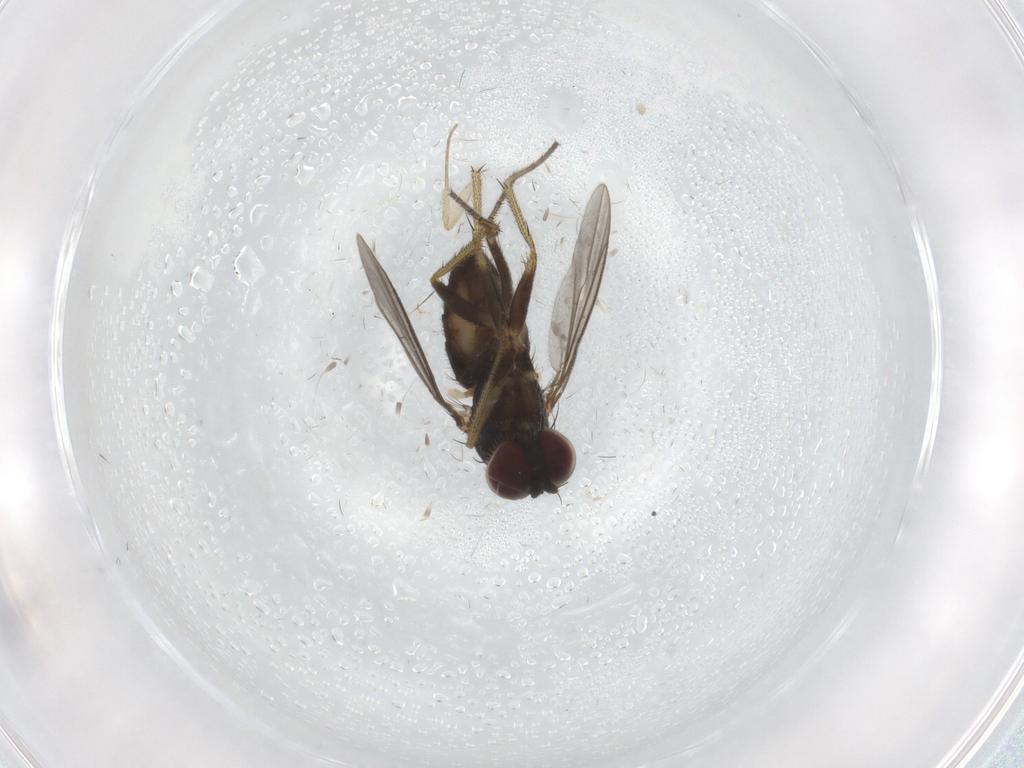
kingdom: Animalia
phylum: Arthropoda
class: Insecta
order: Diptera
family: Phoridae
